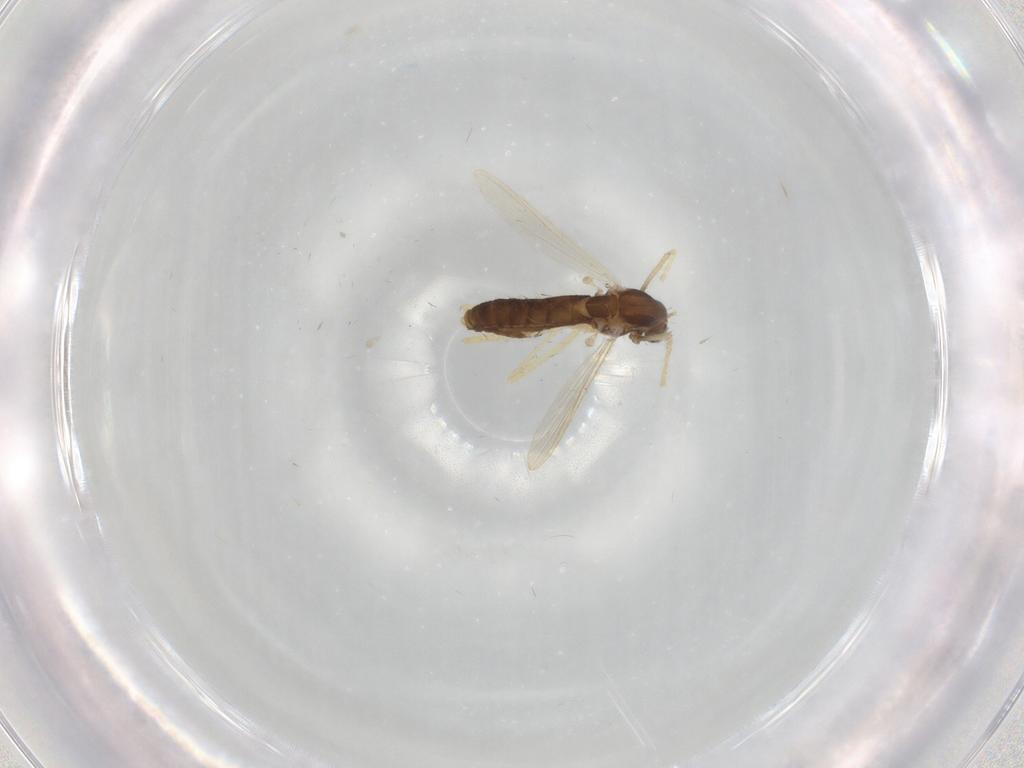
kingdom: Animalia
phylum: Arthropoda
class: Insecta
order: Diptera
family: Chironomidae
